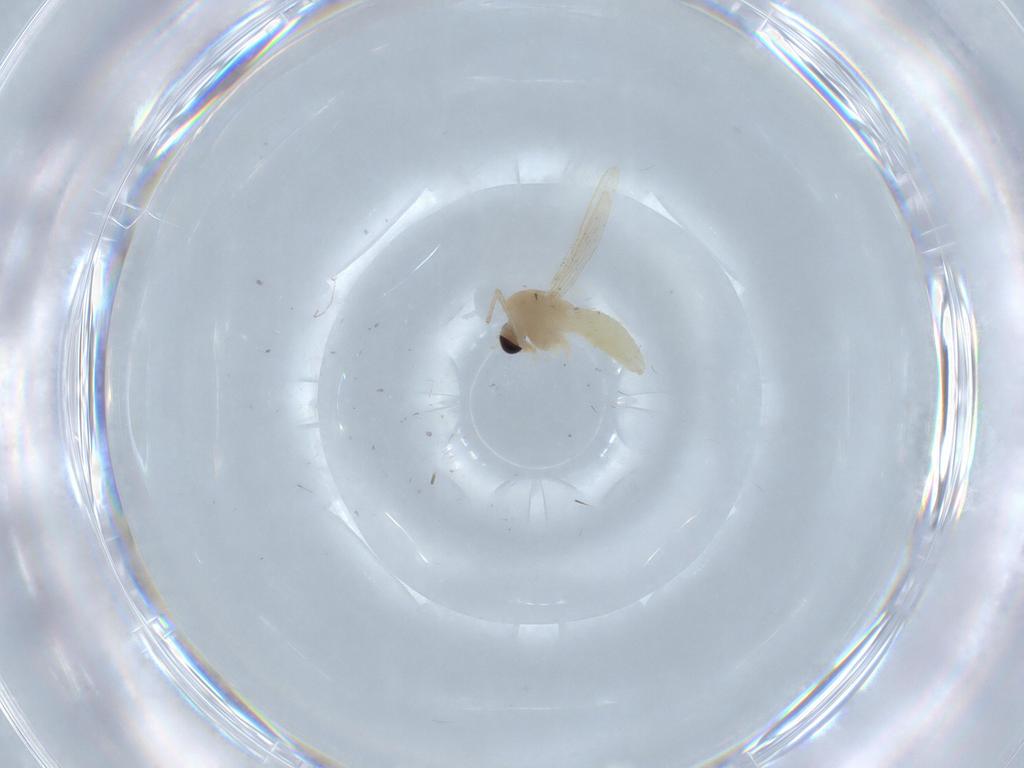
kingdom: Animalia
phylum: Arthropoda
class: Insecta
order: Diptera
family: Chironomidae
